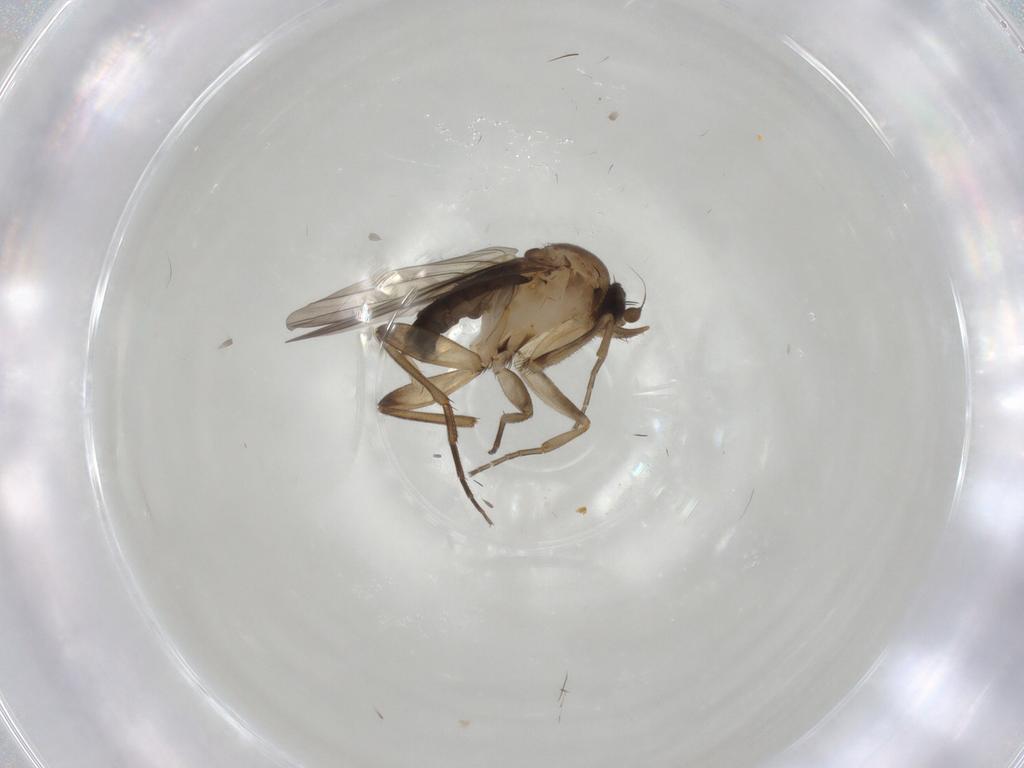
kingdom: Animalia
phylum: Arthropoda
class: Insecta
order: Diptera
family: Phoridae
